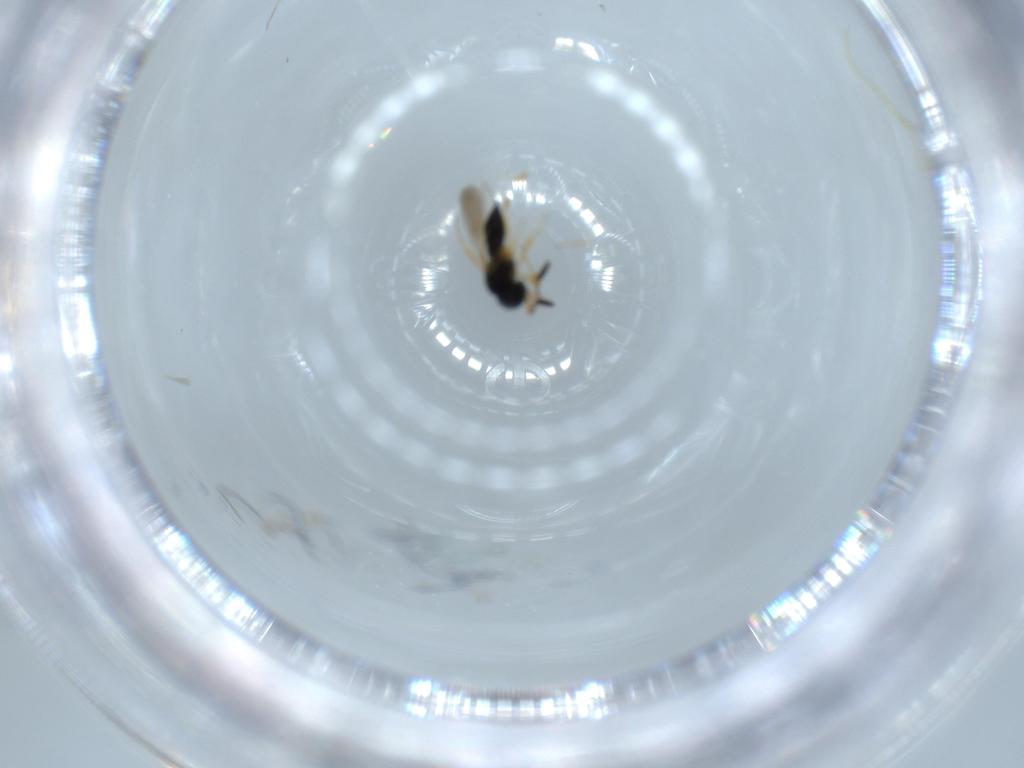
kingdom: Animalia
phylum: Arthropoda
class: Insecta
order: Hymenoptera
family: Scelionidae
